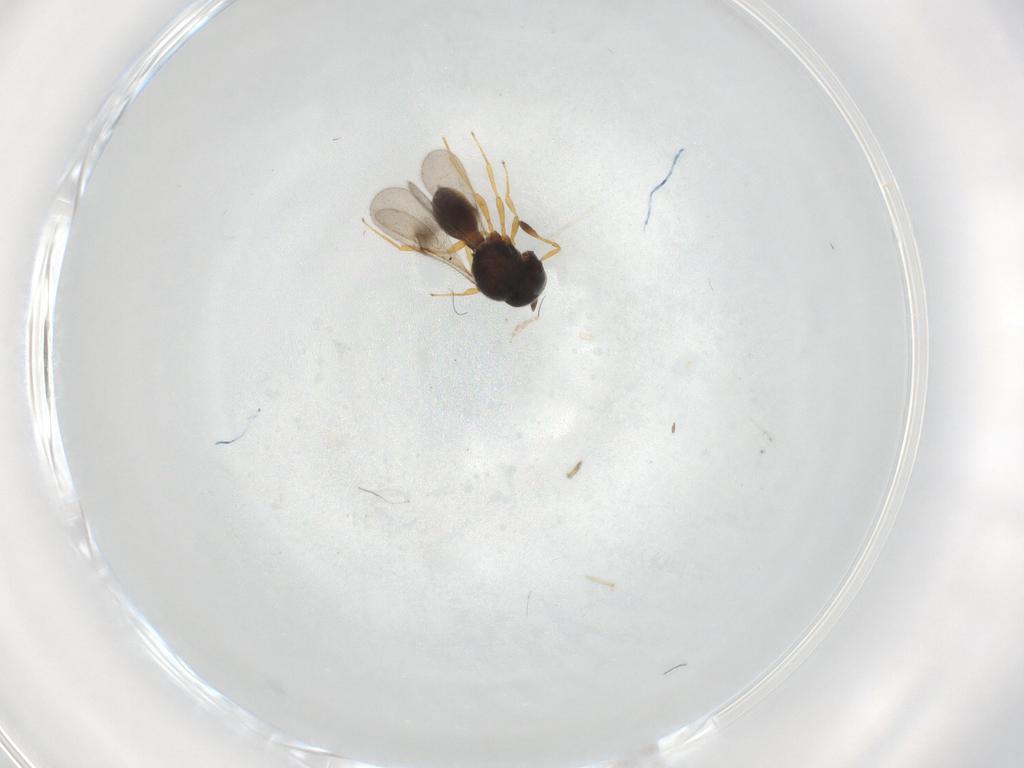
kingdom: Animalia
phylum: Arthropoda
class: Insecta
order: Hymenoptera
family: Scelionidae
